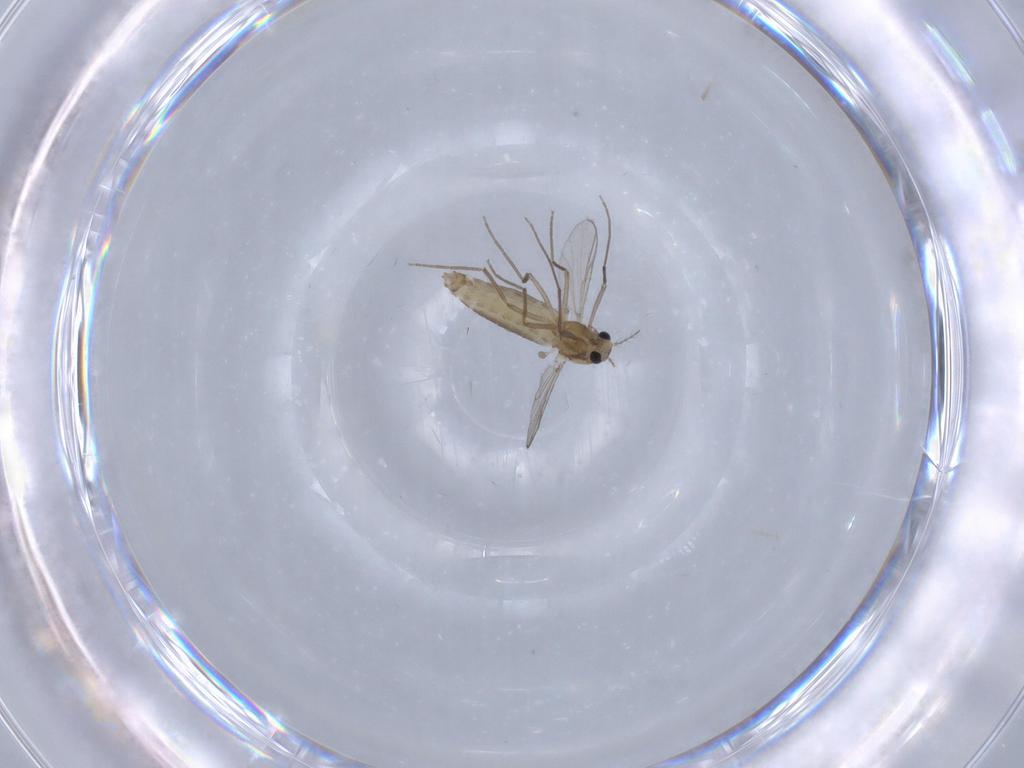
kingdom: Animalia
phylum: Arthropoda
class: Insecta
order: Diptera
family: Chironomidae
